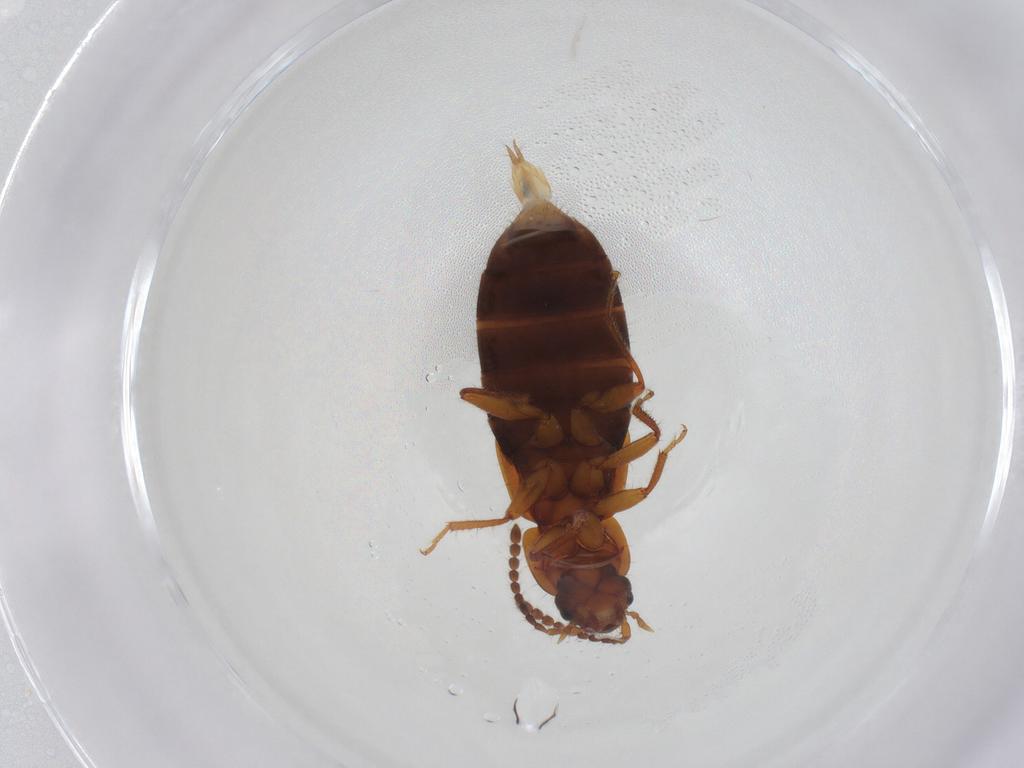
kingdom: Animalia
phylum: Arthropoda
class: Insecta
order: Coleoptera
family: Staphylinidae
